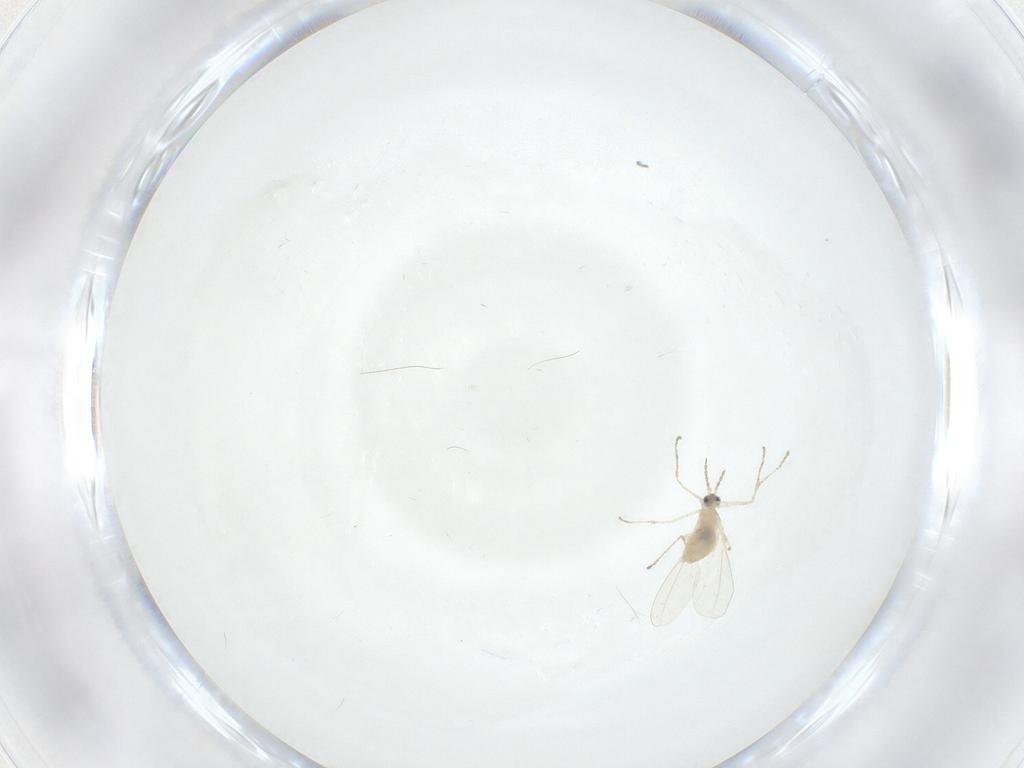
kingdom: Animalia
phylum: Arthropoda
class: Insecta
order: Diptera
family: Cecidomyiidae
